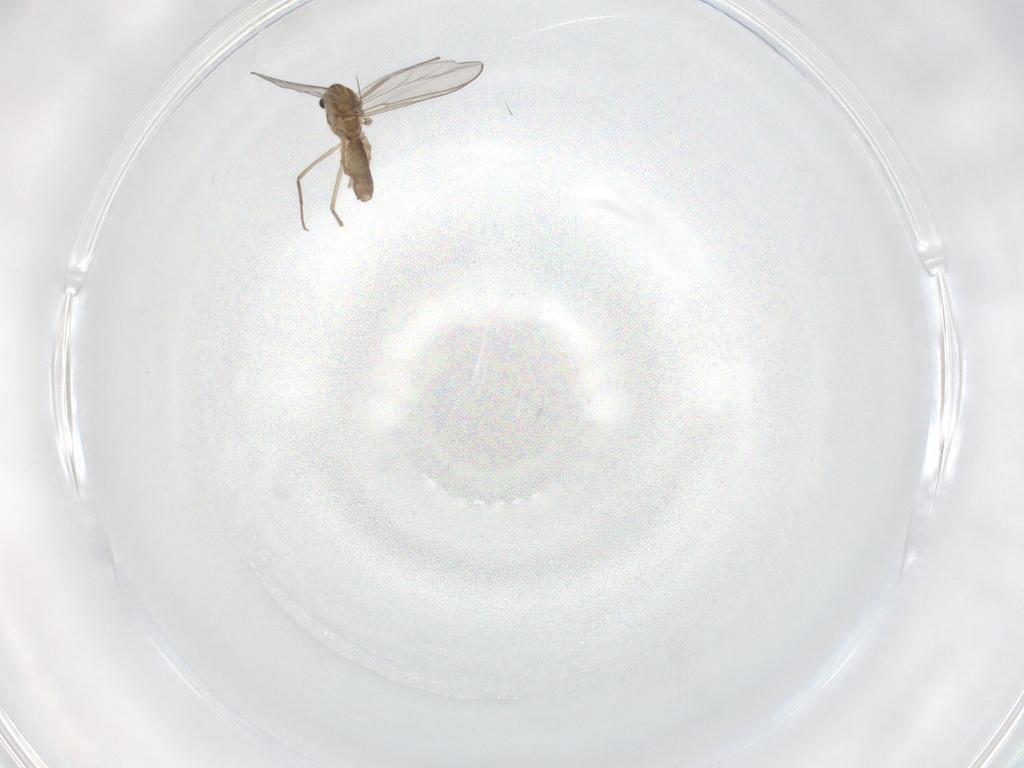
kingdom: Animalia
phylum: Arthropoda
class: Insecta
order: Diptera
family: Chironomidae
